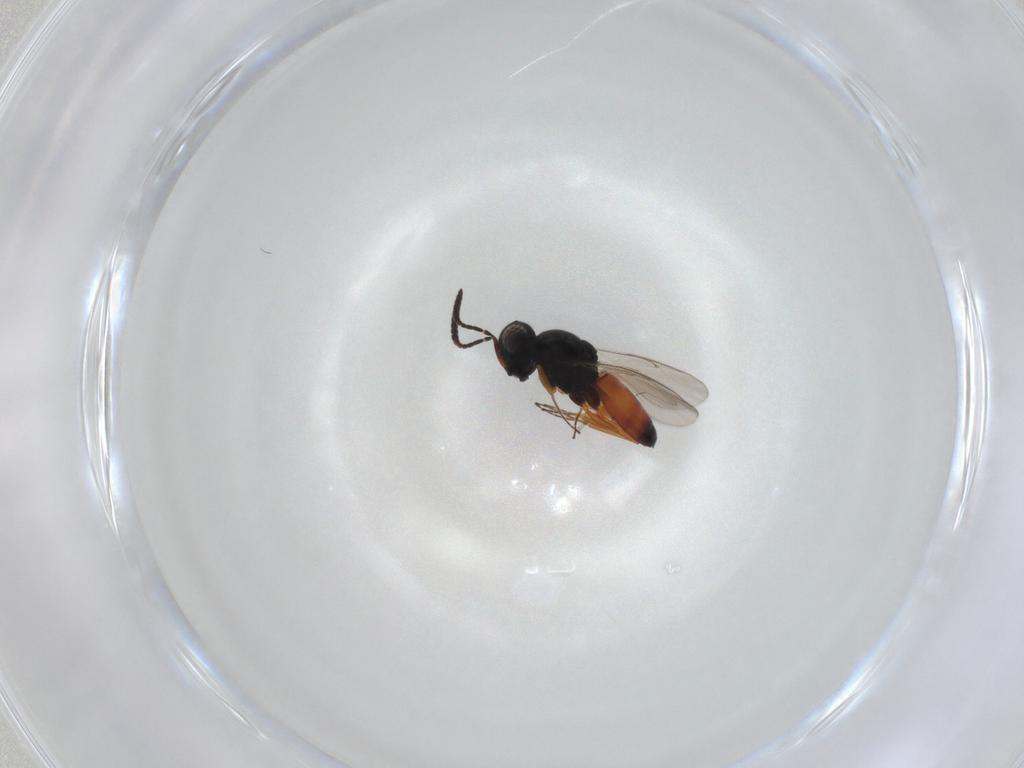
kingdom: Animalia
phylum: Arthropoda
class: Insecta
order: Hymenoptera
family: Scelionidae
